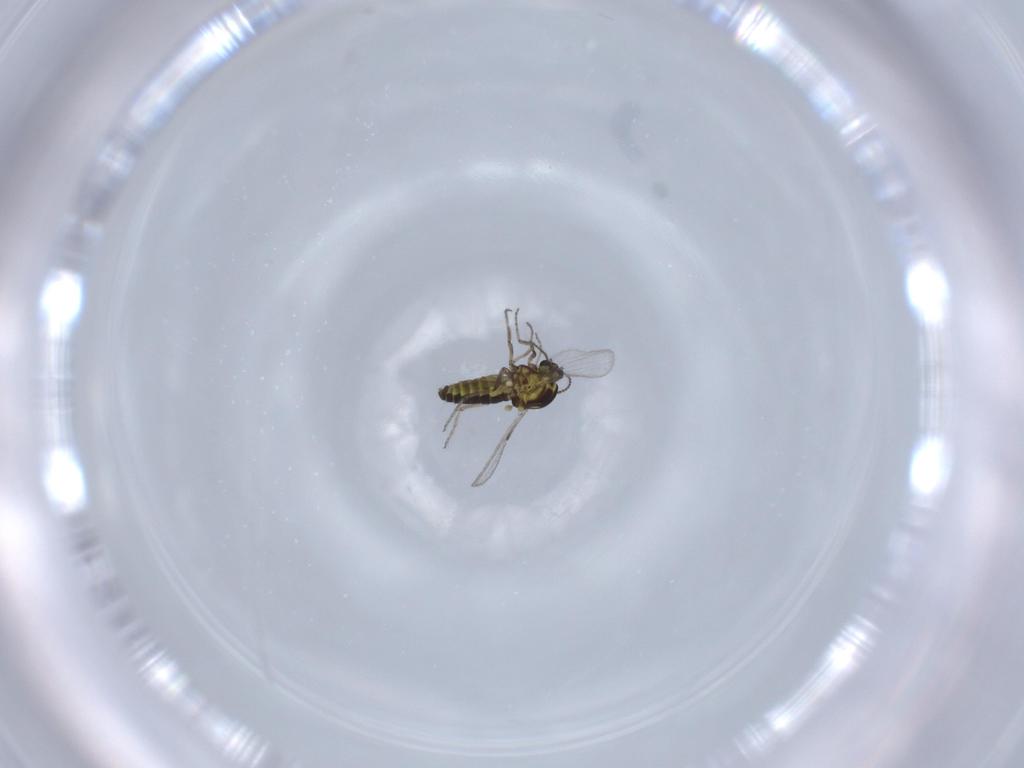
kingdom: Animalia
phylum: Arthropoda
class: Insecta
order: Diptera
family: Ceratopogonidae
